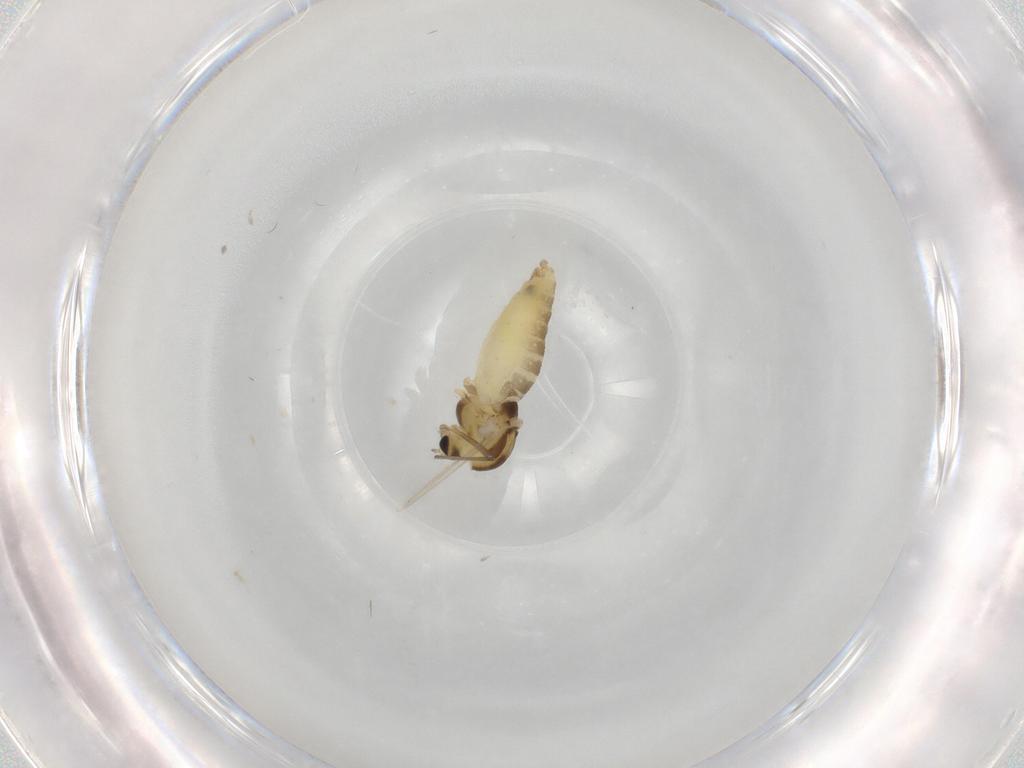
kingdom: Animalia
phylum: Arthropoda
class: Insecta
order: Diptera
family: Chironomidae
